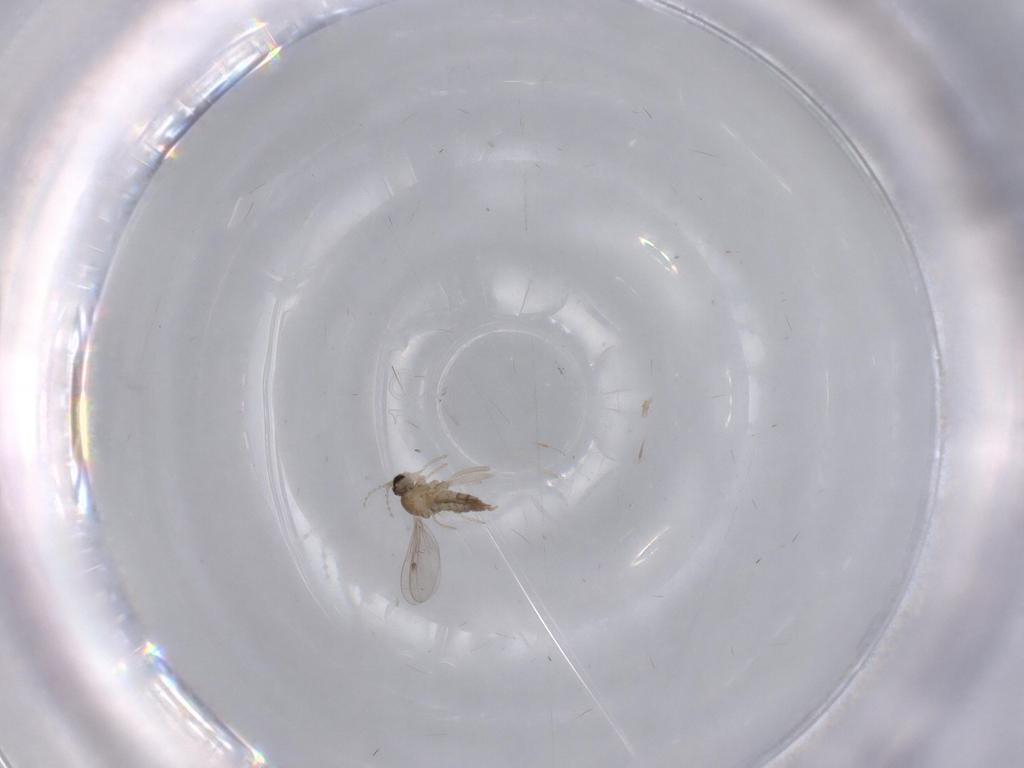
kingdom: Animalia
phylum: Arthropoda
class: Insecta
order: Diptera
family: Cecidomyiidae
